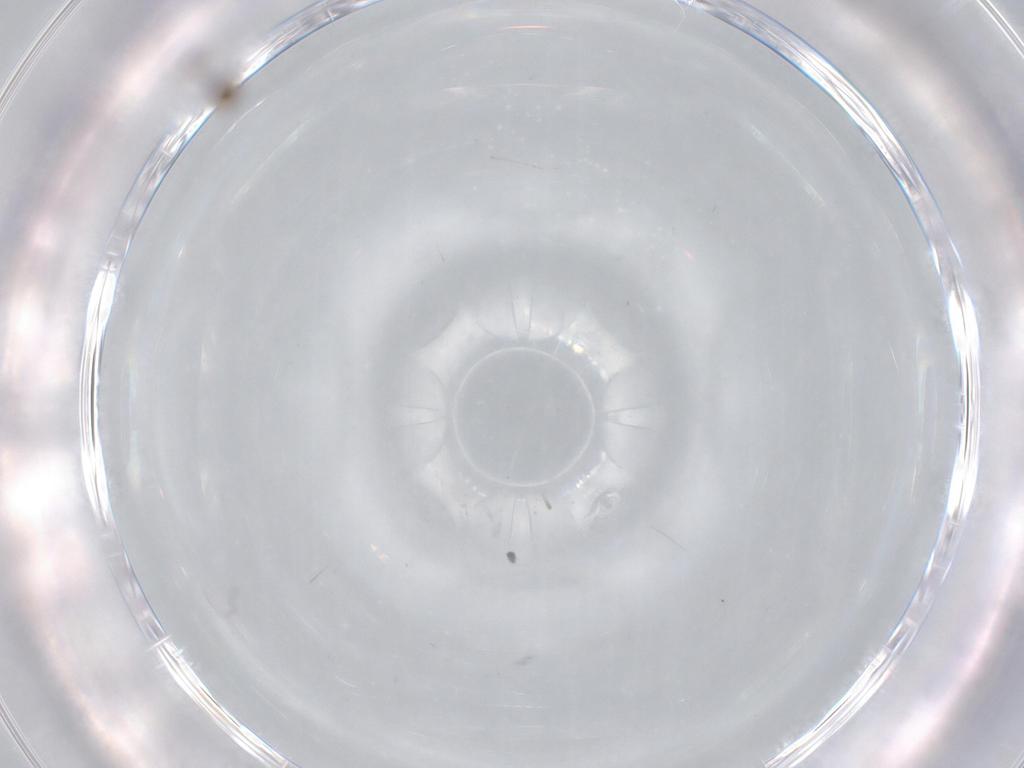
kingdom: Animalia
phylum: Arthropoda
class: Insecta
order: Diptera
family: Cecidomyiidae
